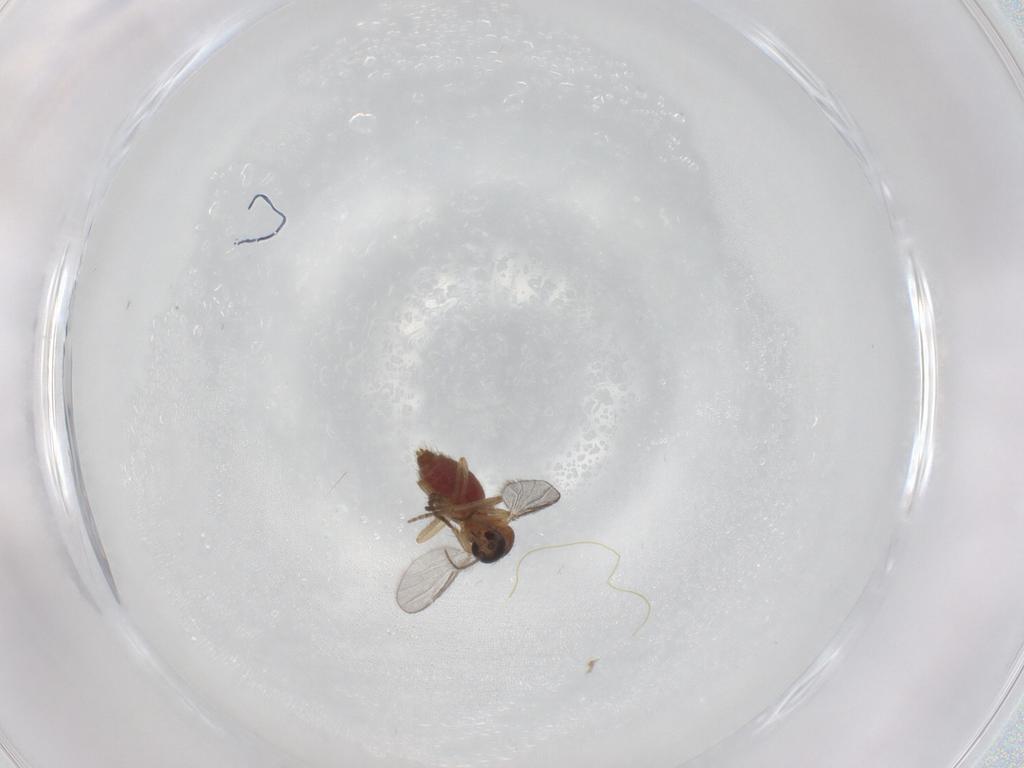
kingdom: Animalia
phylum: Arthropoda
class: Insecta
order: Diptera
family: Ceratopogonidae
